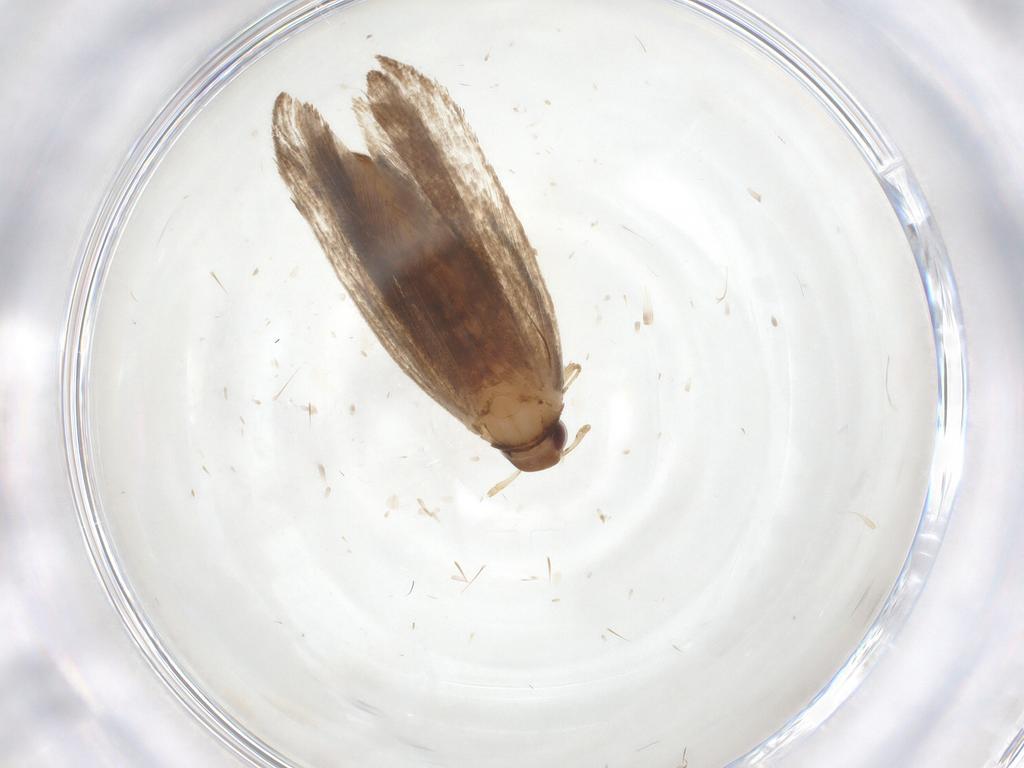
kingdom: Animalia
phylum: Arthropoda
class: Insecta
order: Lepidoptera
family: Gelechiidae
